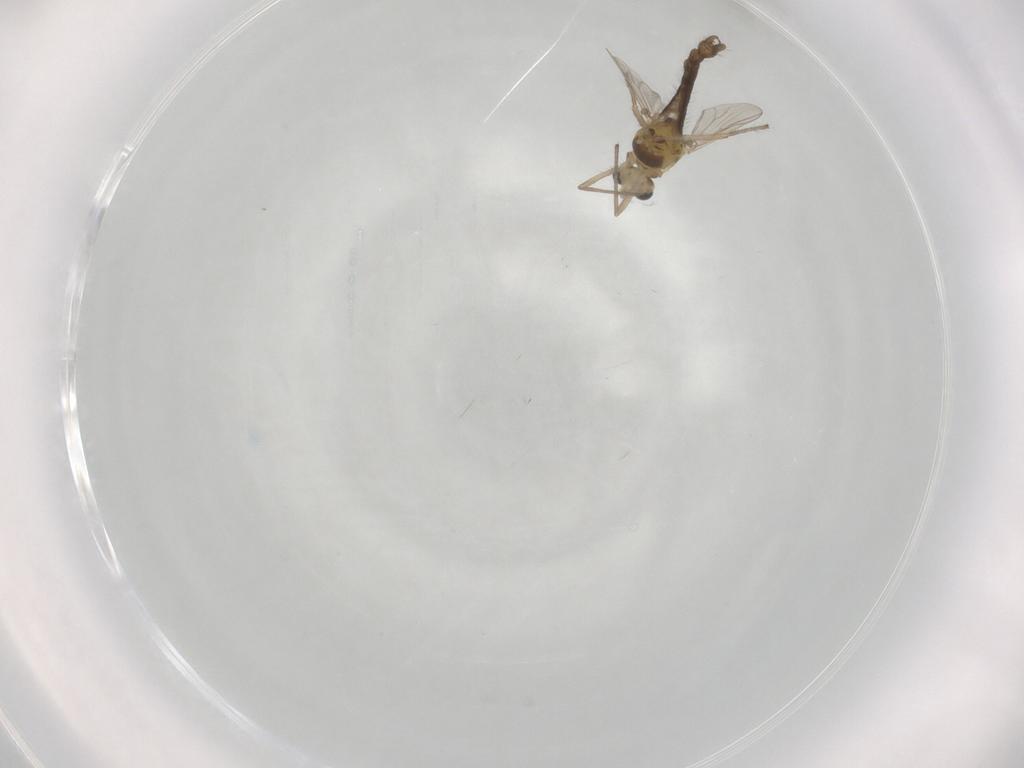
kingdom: Animalia
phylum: Arthropoda
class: Insecta
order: Diptera
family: Chironomidae
